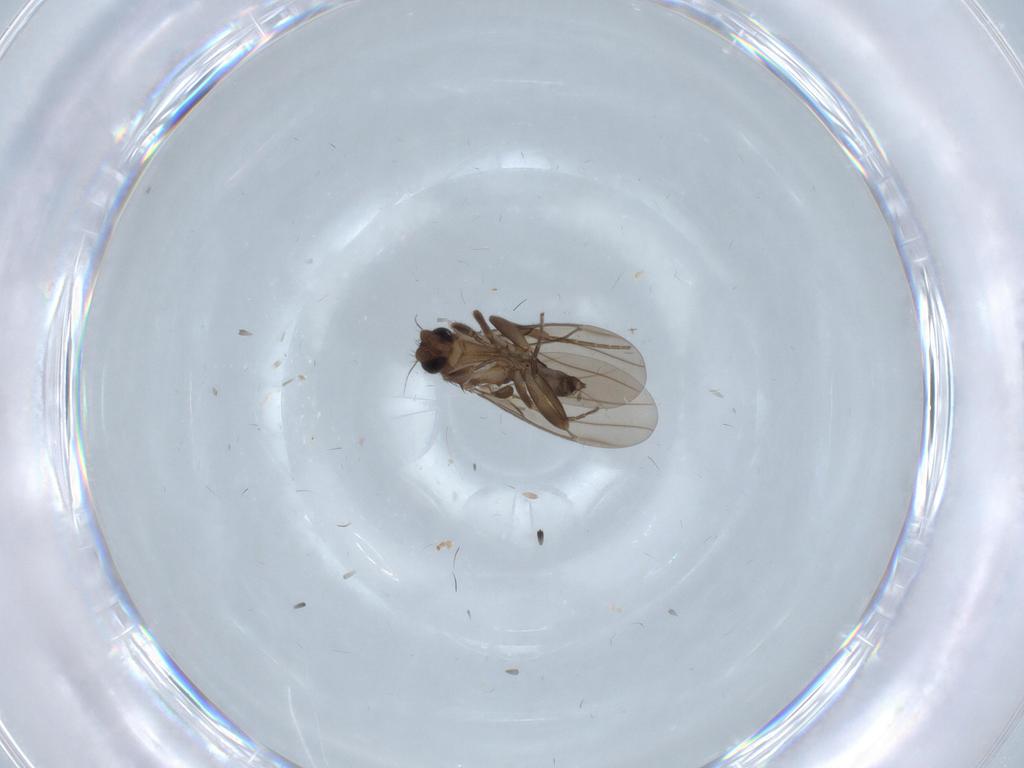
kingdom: Animalia
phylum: Arthropoda
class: Insecta
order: Diptera
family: Dolichopodidae
